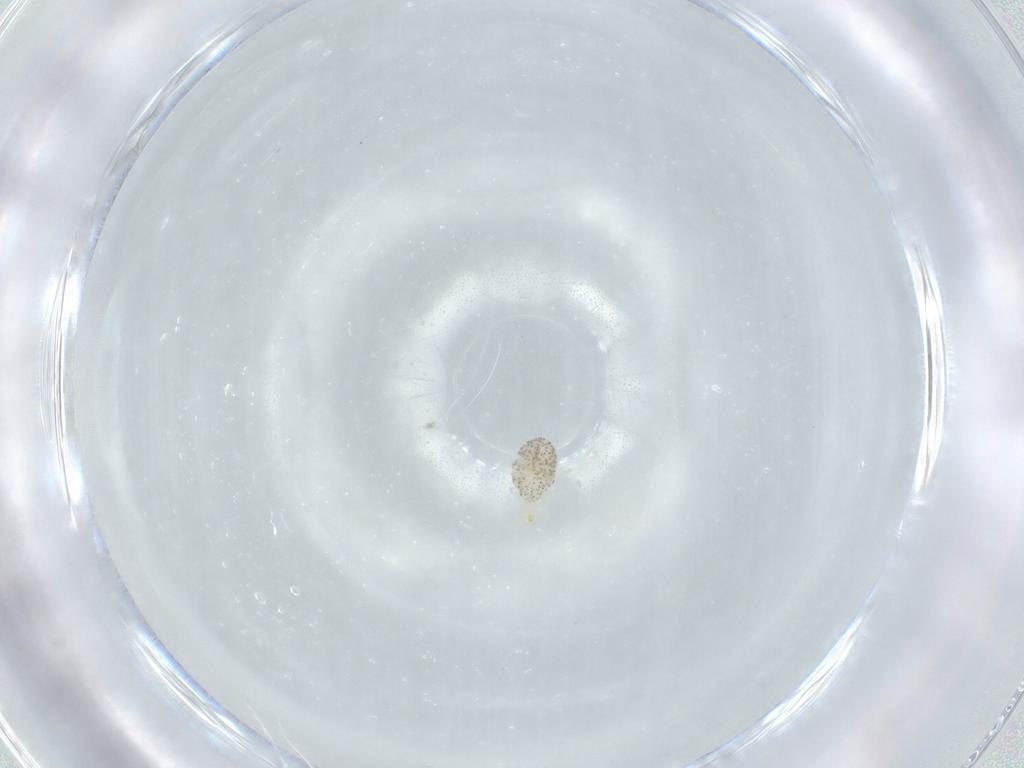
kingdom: Animalia
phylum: Arthropoda
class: Arachnida
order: Trombidiformes
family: Erythraeidae
